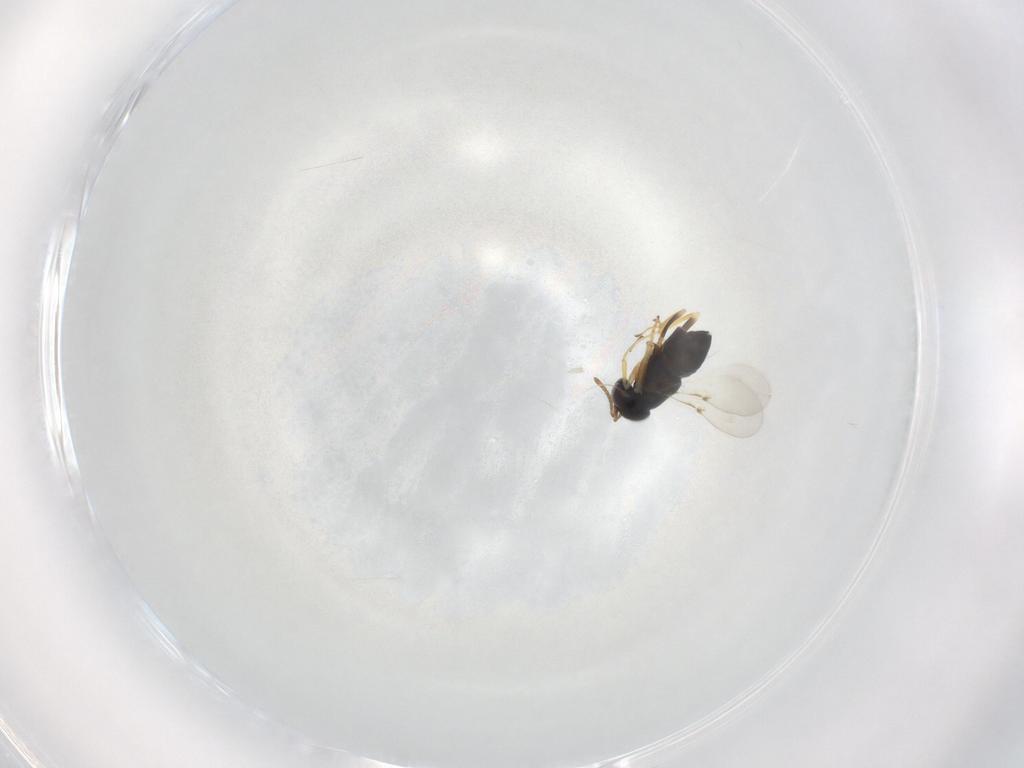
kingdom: Animalia
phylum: Arthropoda
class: Insecta
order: Hymenoptera
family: Encyrtidae
